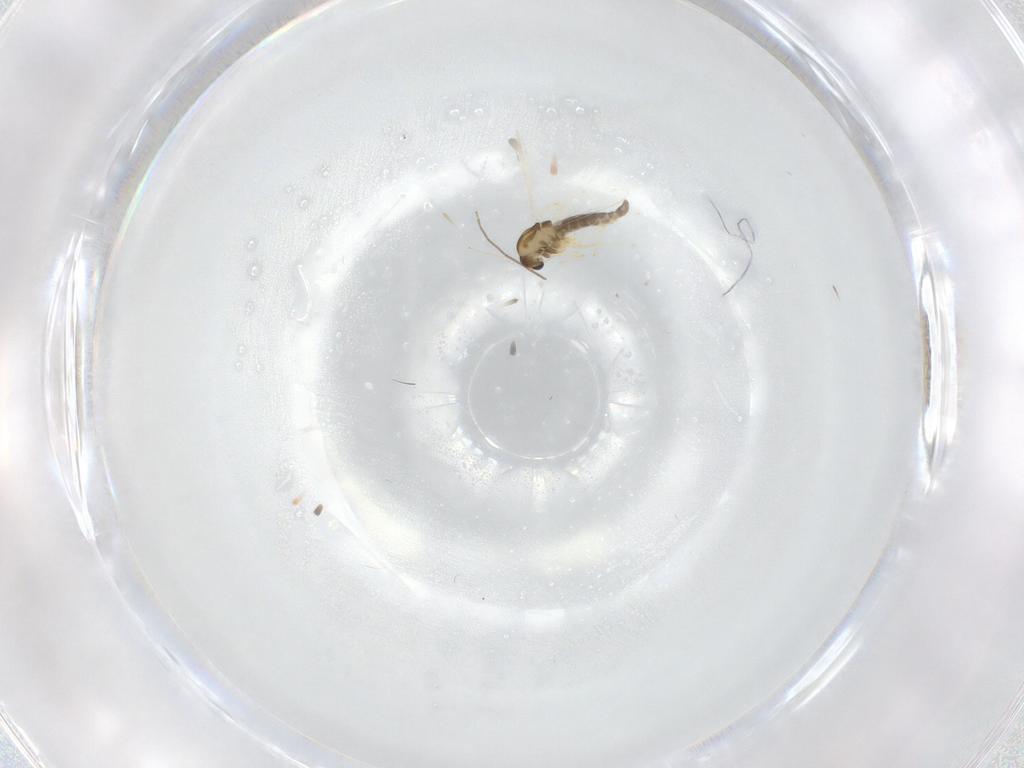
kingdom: Animalia
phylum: Arthropoda
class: Insecta
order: Diptera
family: Chironomidae
